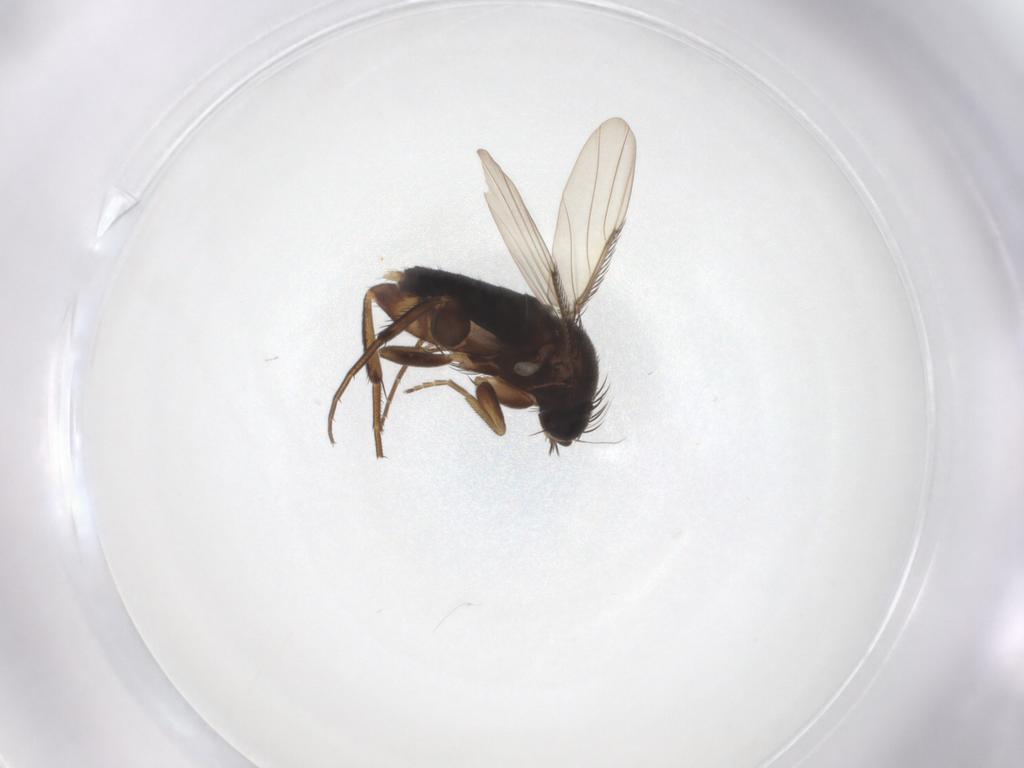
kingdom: Animalia
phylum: Arthropoda
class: Insecta
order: Diptera
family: Phoridae
